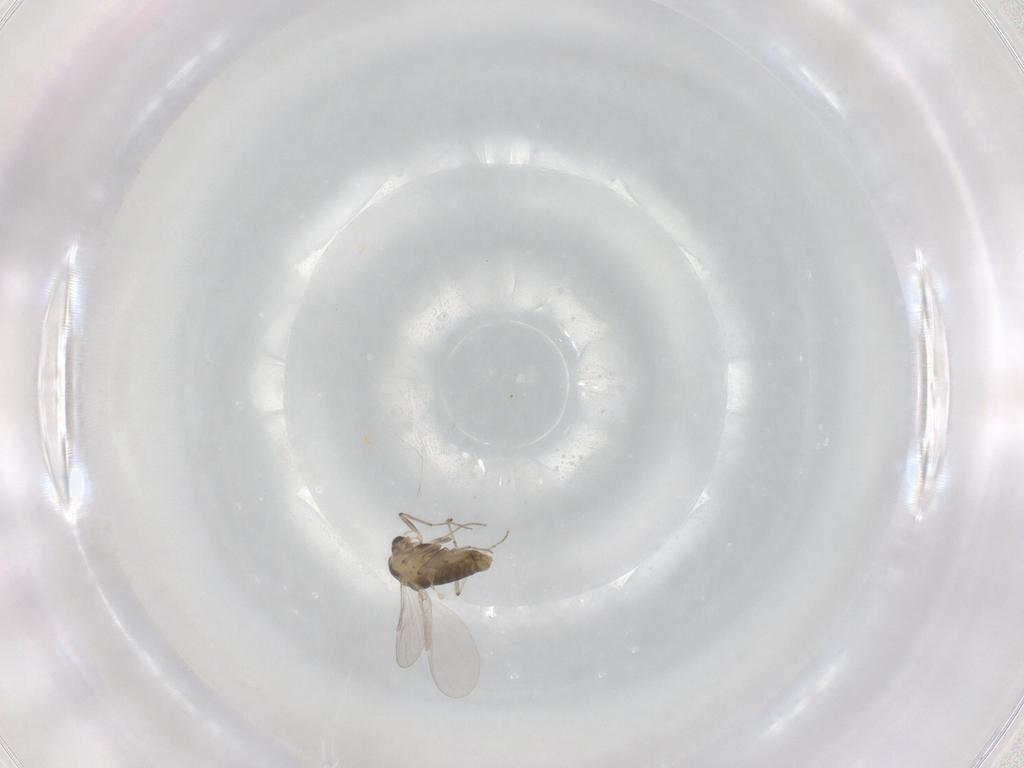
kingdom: Animalia
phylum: Arthropoda
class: Insecta
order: Diptera
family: Chironomidae
